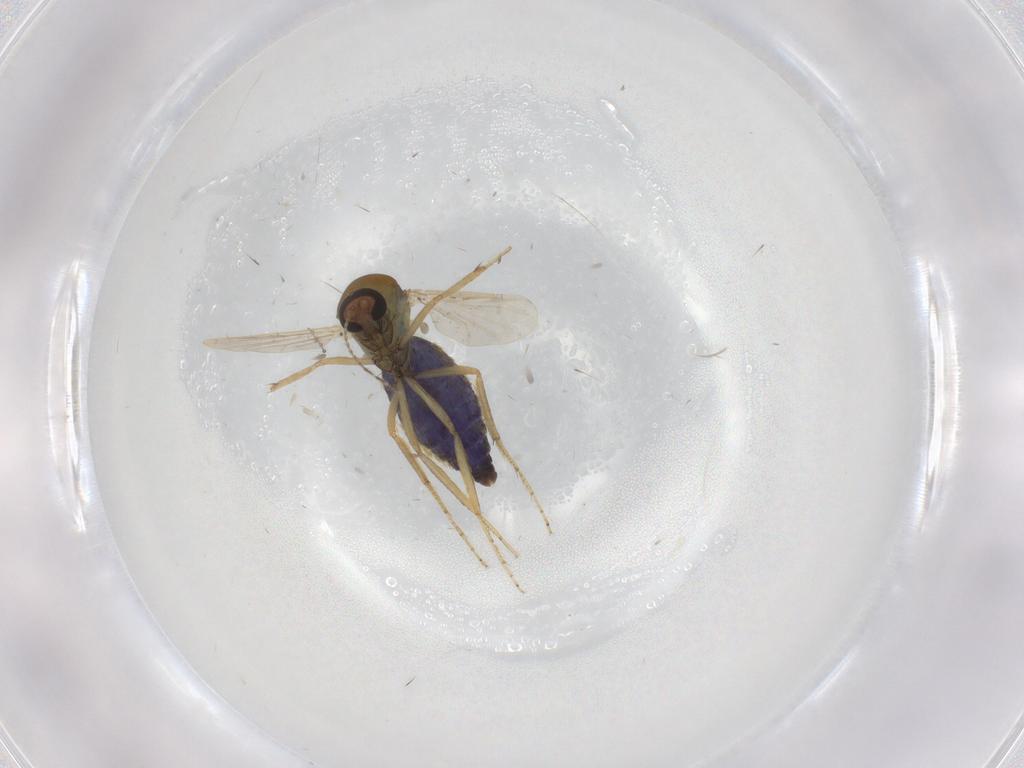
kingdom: Animalia
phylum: Arthropoda
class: Insecta
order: Diptera
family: Ceratopogonidae
